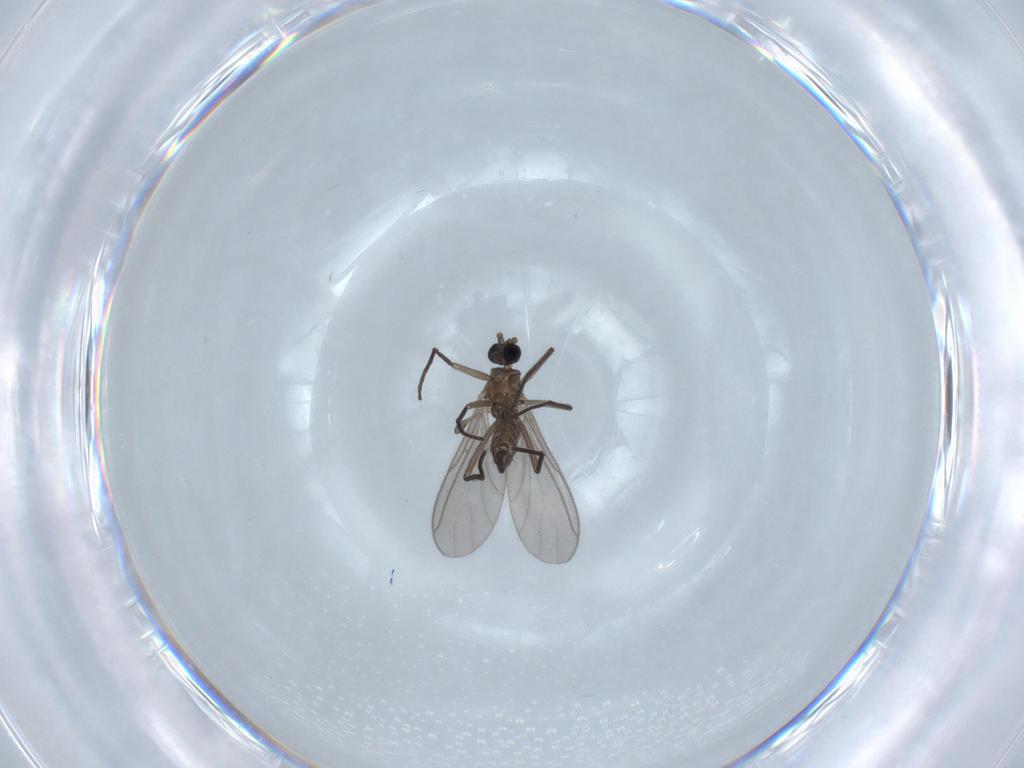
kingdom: Animalia
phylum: Arthropoda
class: Insecta
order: Diptera
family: Sciaridae
